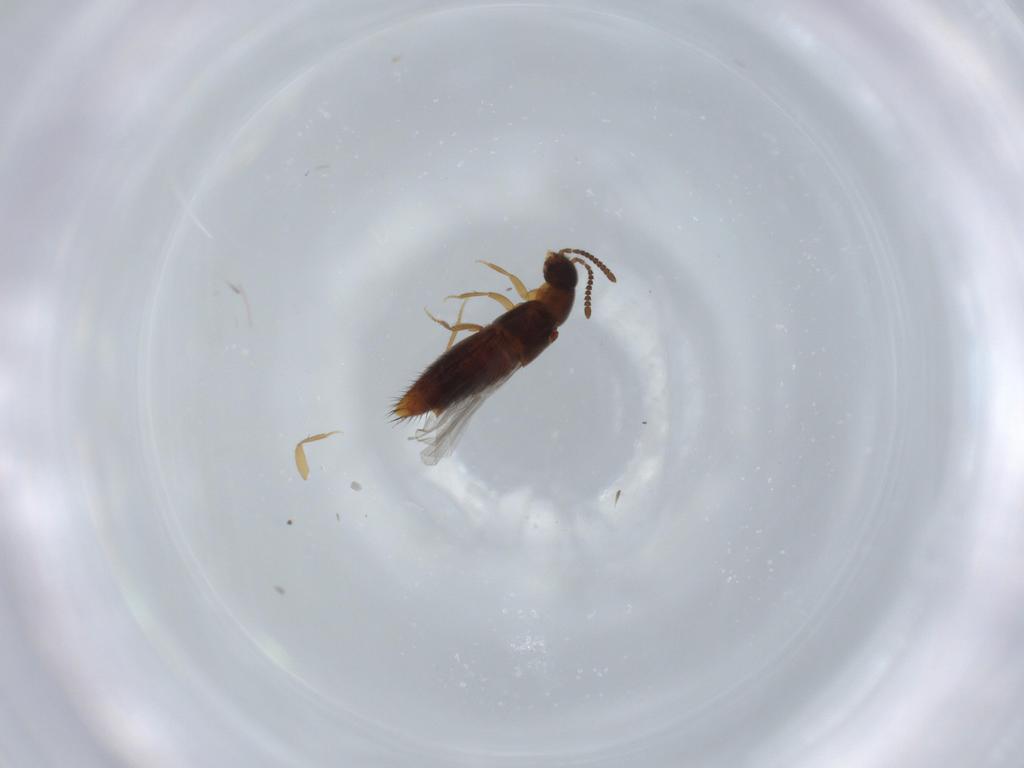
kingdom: Animalia
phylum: Arthropoda
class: Insecta
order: Coleoptera
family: Staphylinidae
